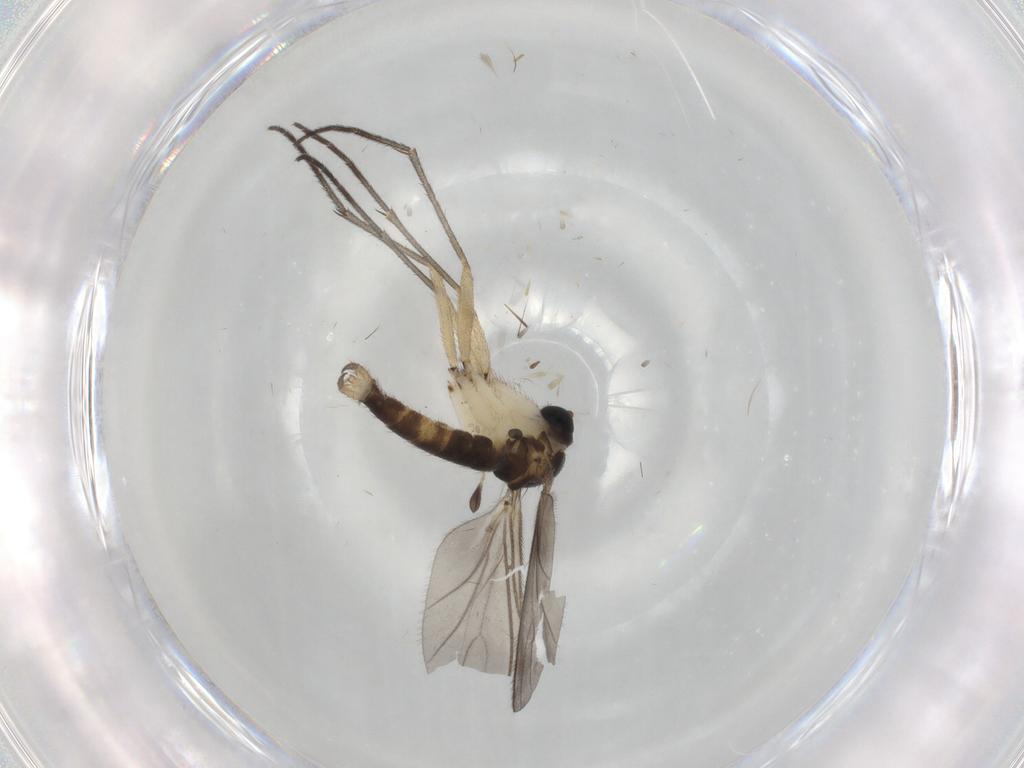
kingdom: Animalia
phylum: Arthropoda
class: Insecta
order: Diptera
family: Sciaridae
